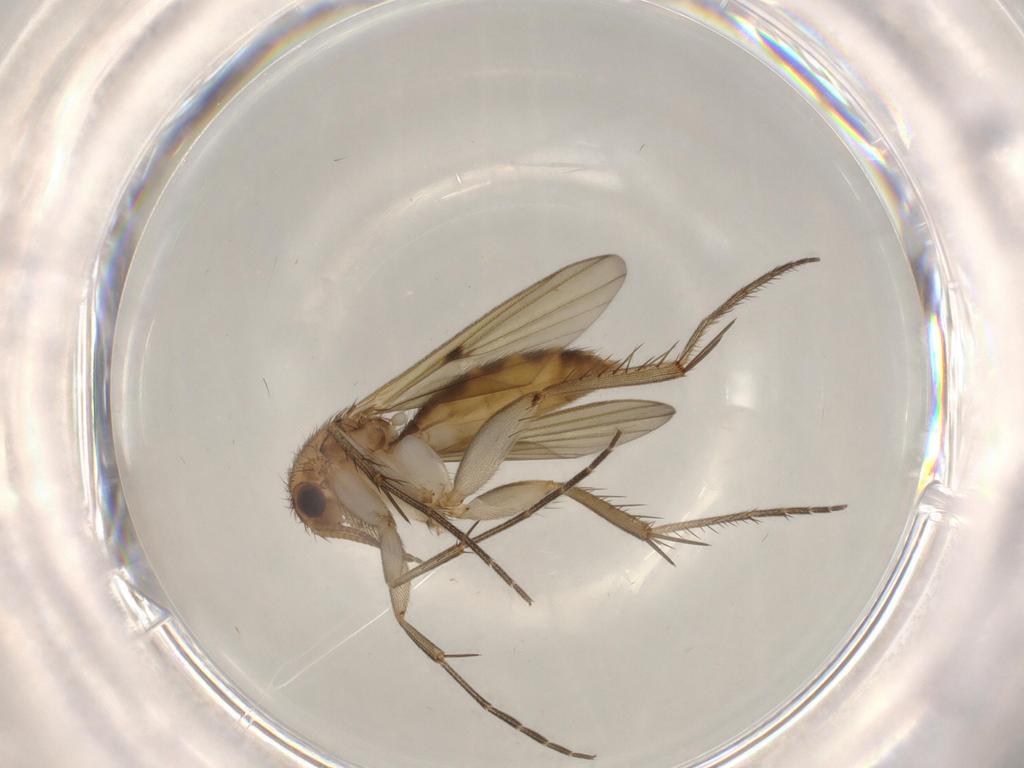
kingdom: Animalia
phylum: Arthropoda
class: Insecta
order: Diptera
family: Mycetophilidae
